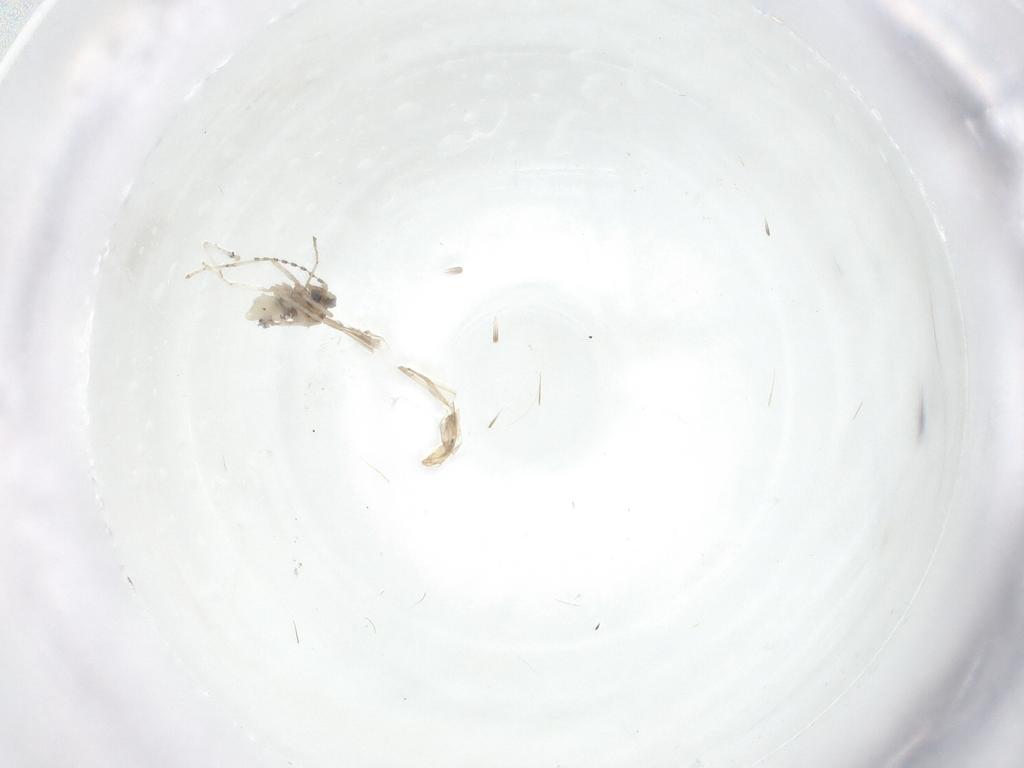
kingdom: Animalia
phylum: Arthropoda
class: Insecta
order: Diptera
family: Cecidomyiidae
